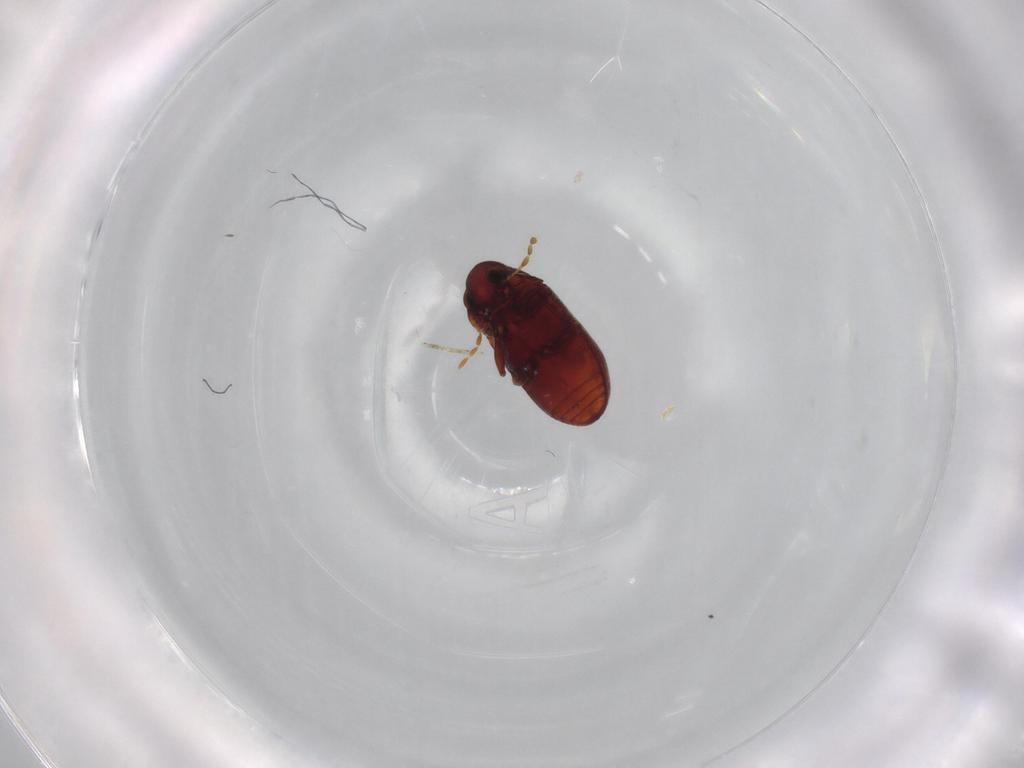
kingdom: Animalia
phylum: Arthropoda
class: Insecta
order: Coleoptera
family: Ptinidae
